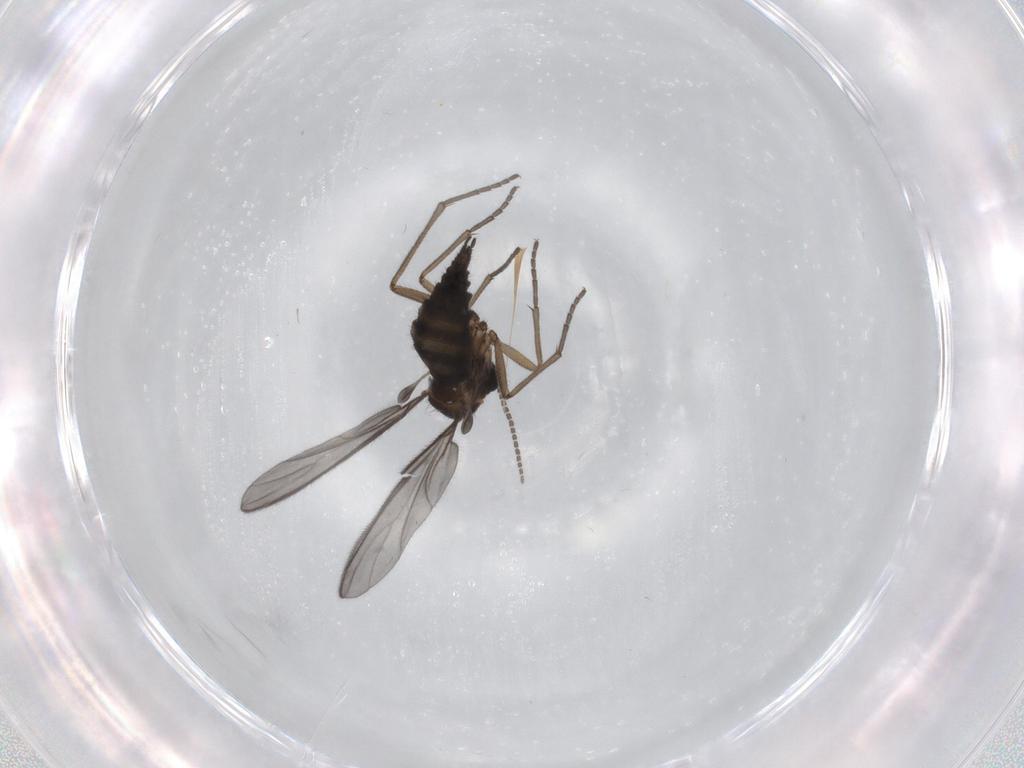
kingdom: Animalia
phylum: Arthropoda
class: Insecta
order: Diptera
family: Sciaridae
